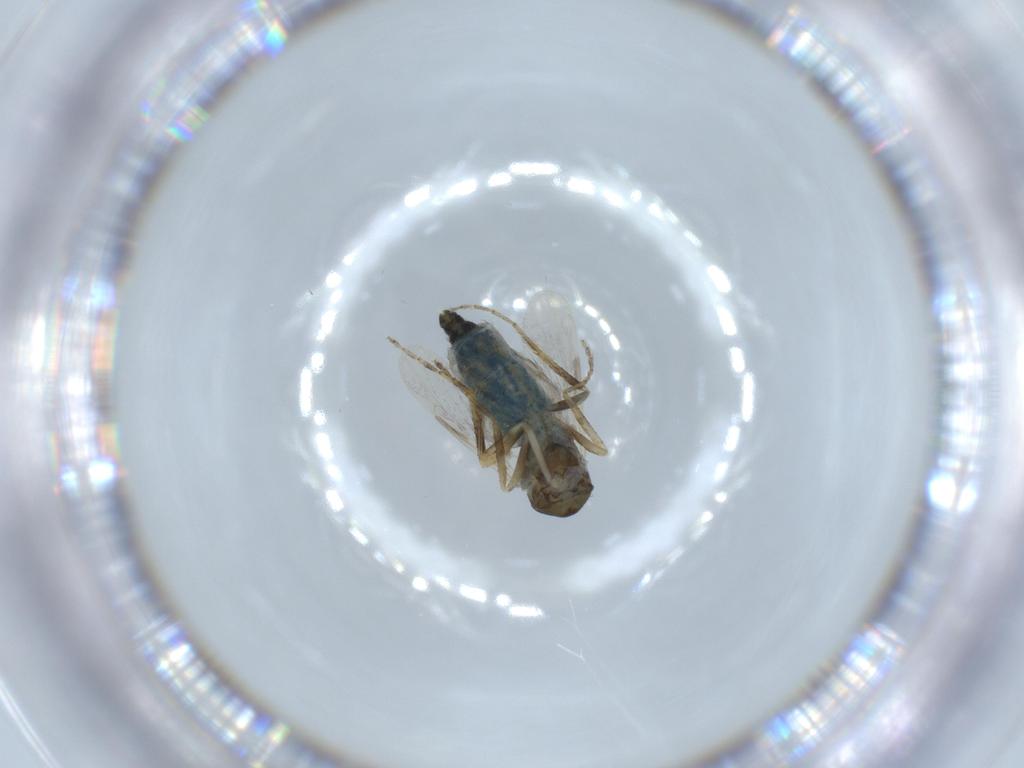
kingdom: Animalia
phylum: Arthropoda
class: Insecta
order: Diptera
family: Ceratopogonidae
